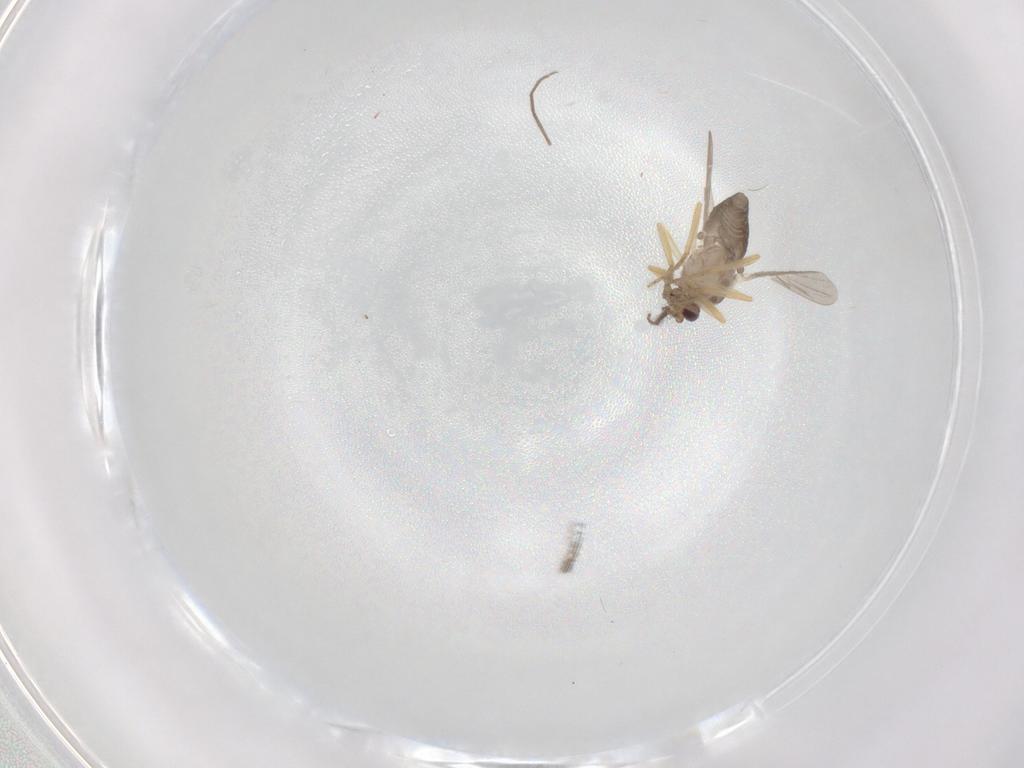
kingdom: Animalia
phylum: Arthropoda
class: Insecta
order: Diptera
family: Ceratopogonidae
